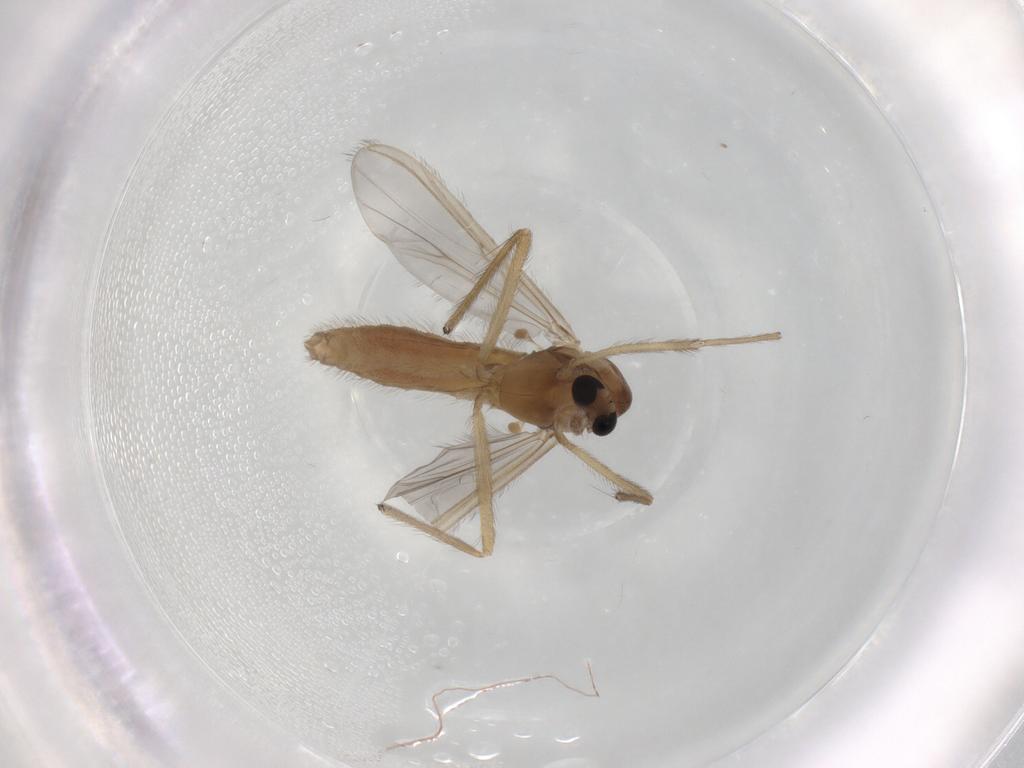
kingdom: Animalia
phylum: Arthropoda
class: Insecta
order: Diptera
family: Chironomidae
